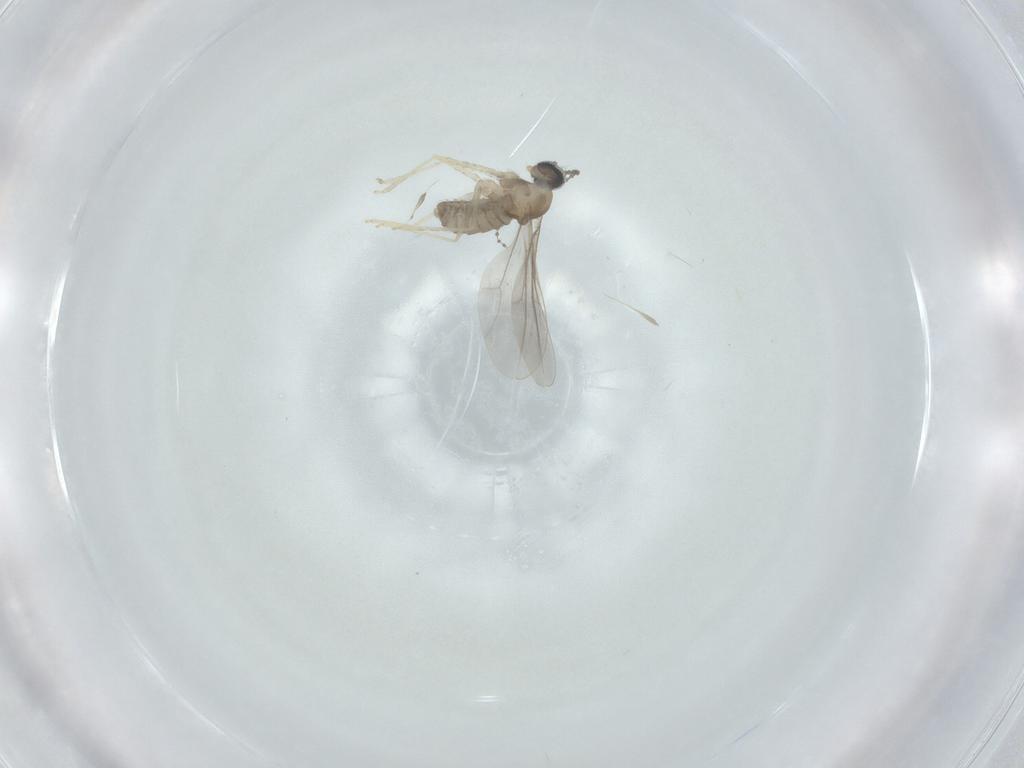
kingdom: Animalia
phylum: Arthropoda
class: Insecta
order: Diptera
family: Cecidomyiidae
